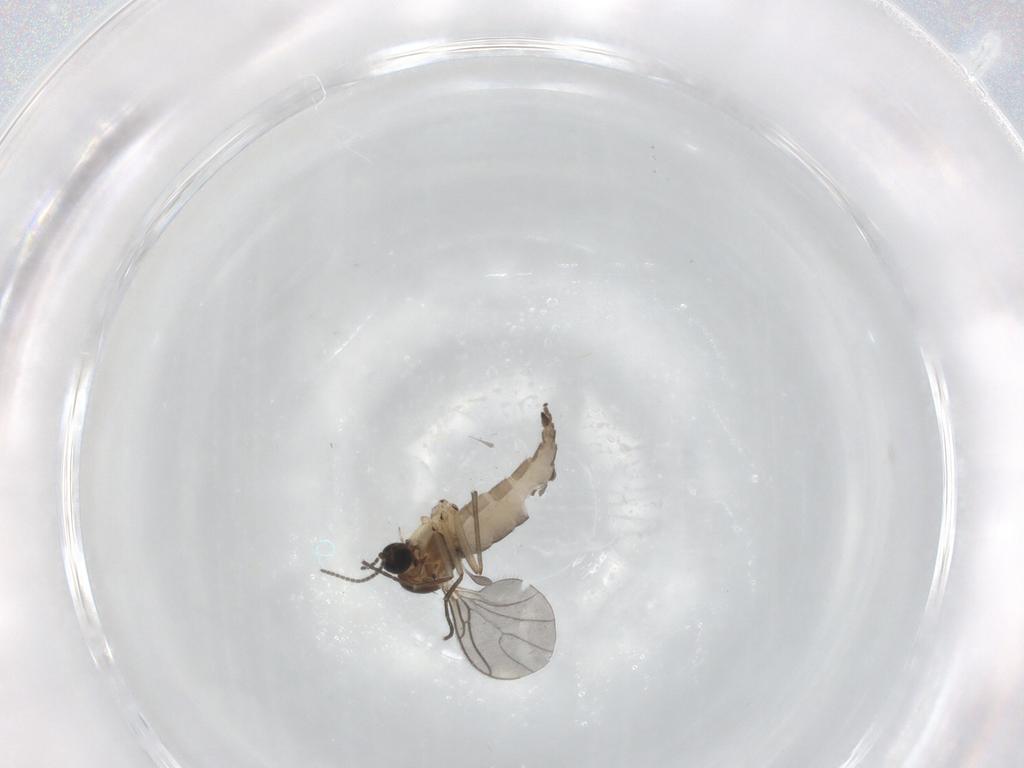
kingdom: Animalia
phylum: Arthropoda
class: Insecta
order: Diptera
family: Sciaridae
